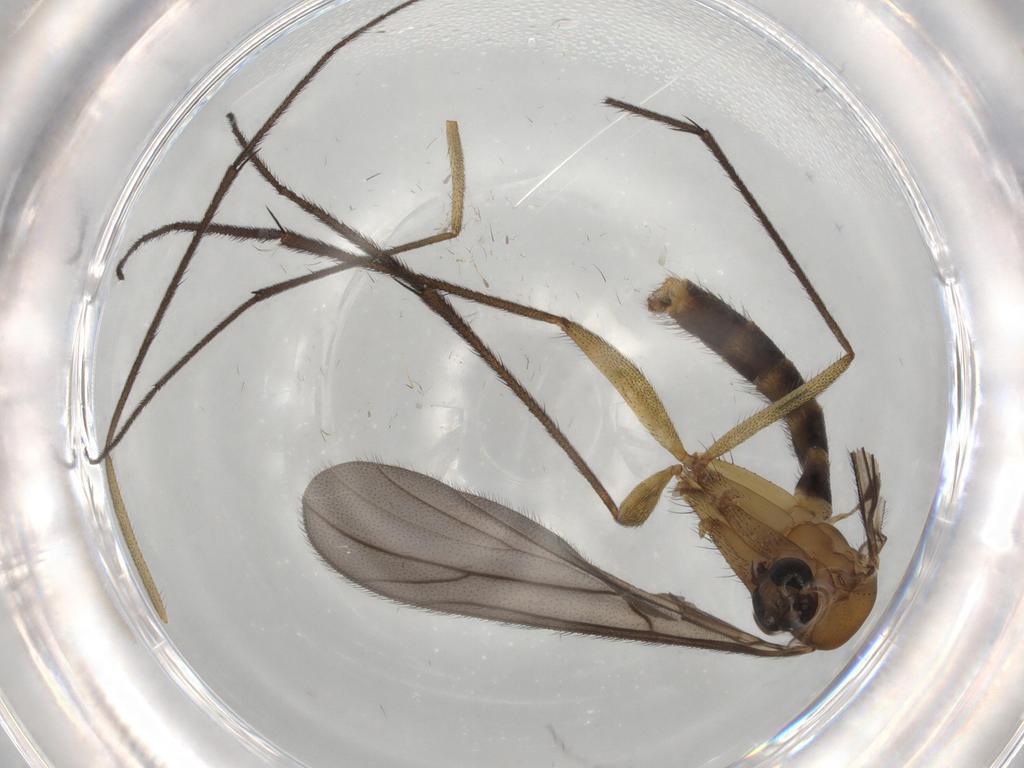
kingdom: Animalia
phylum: Arthropoda
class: Insecta
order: Diptera
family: Ditomyiidae
